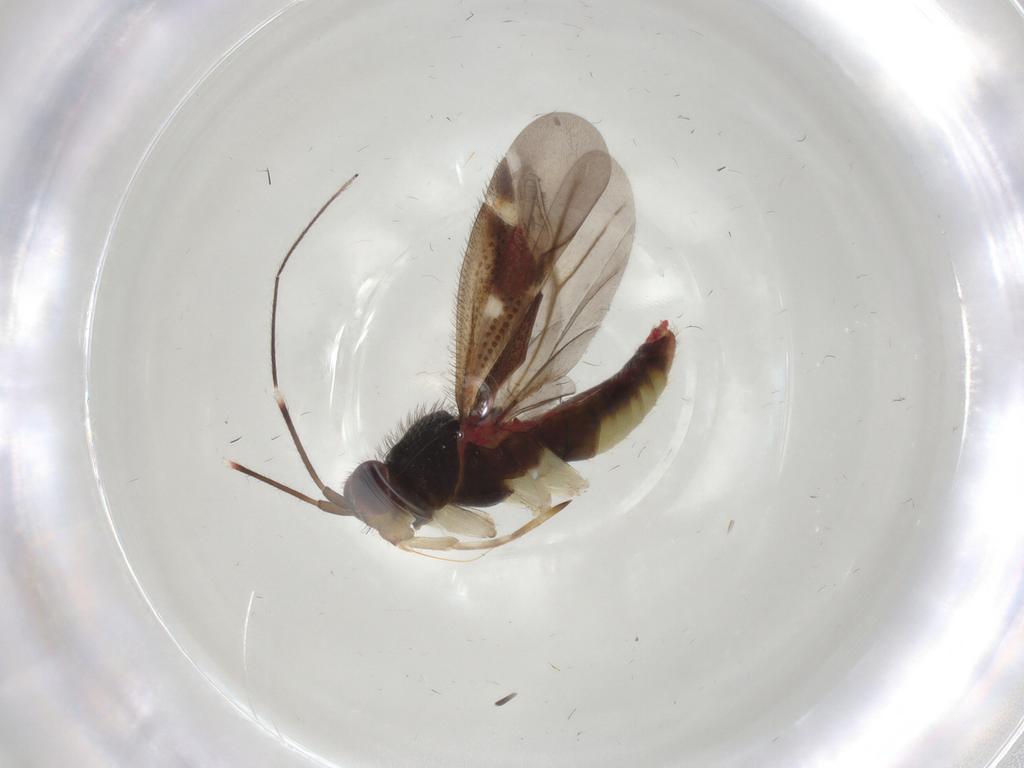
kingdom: Animalia
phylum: Arthropoda
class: Insecta
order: Hemiptera
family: Miridae
